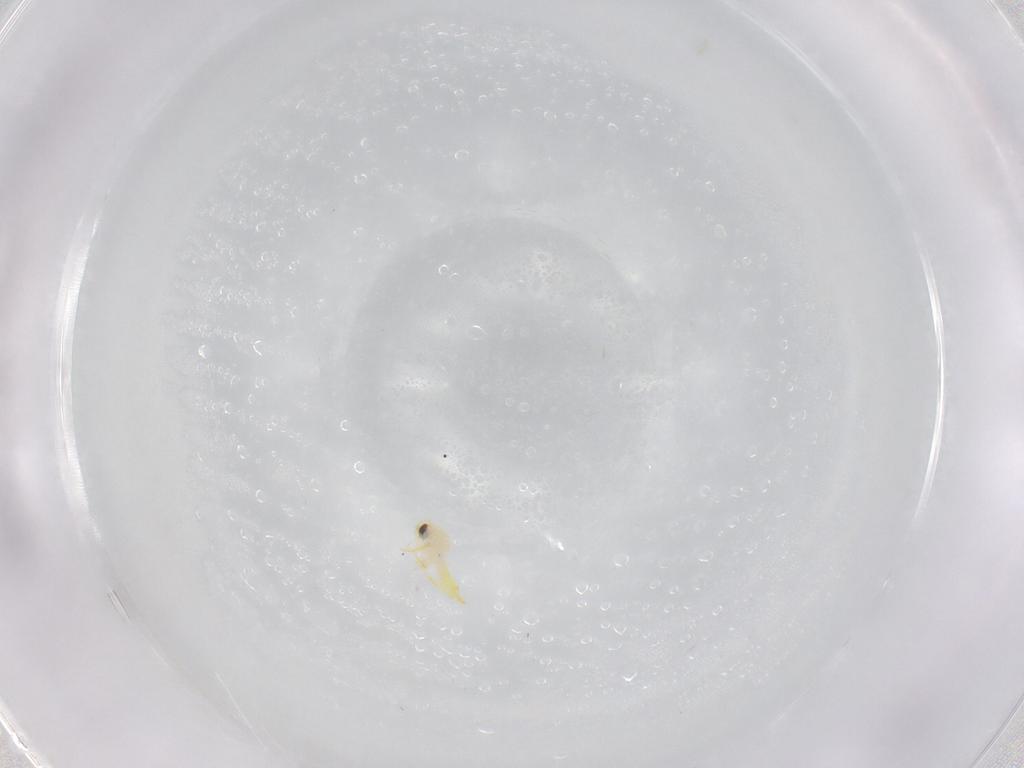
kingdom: Animalia
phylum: Arthropoda
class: Insecta
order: Hemiptera
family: Aleyrodidae
